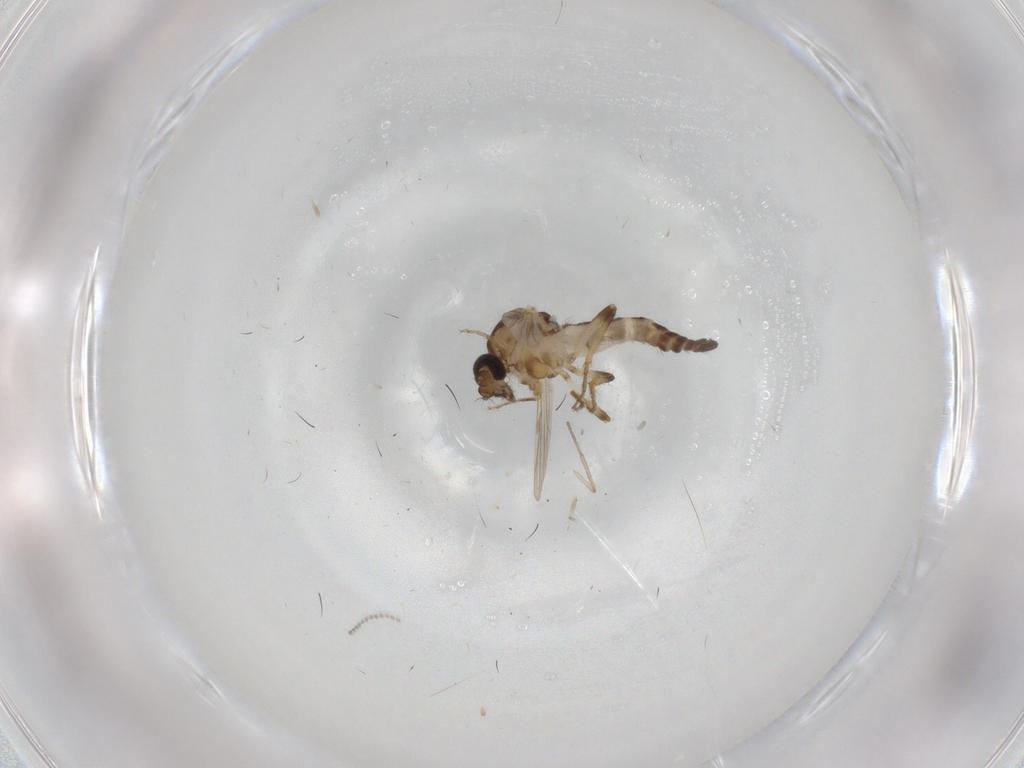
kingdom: Animalia
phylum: Arthropoda
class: Insecta
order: Diptera
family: Ceratopogonidae
